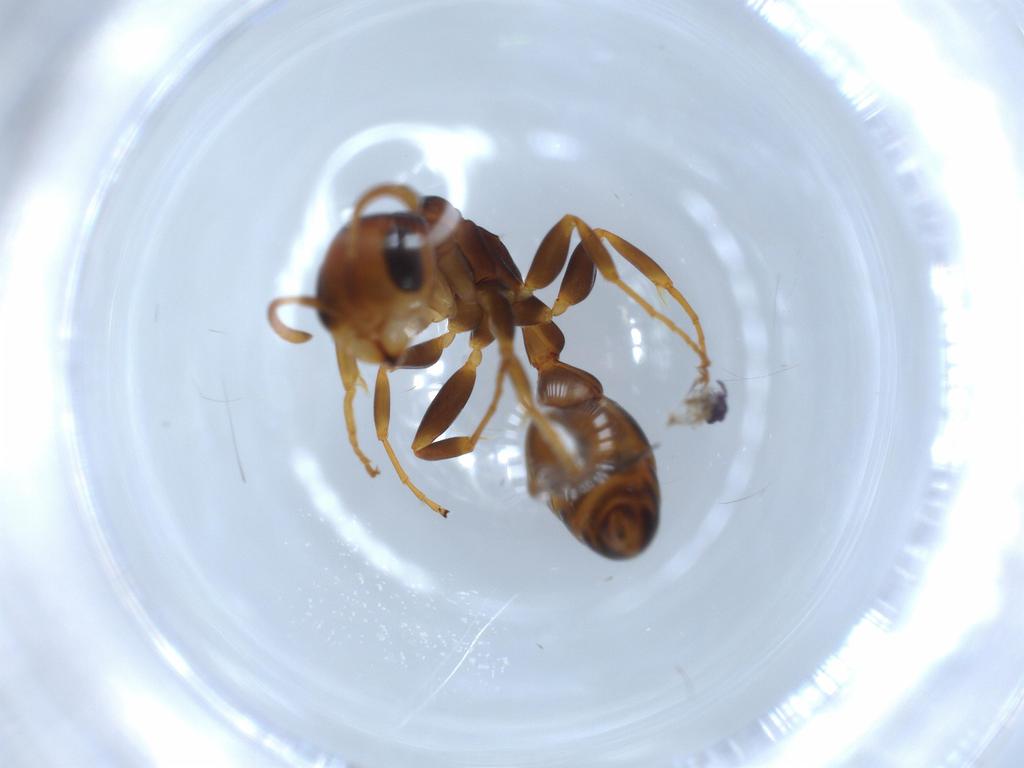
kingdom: Animalia
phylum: Arthropoda
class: Insecta
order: Hymenoptera
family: Formicidae
